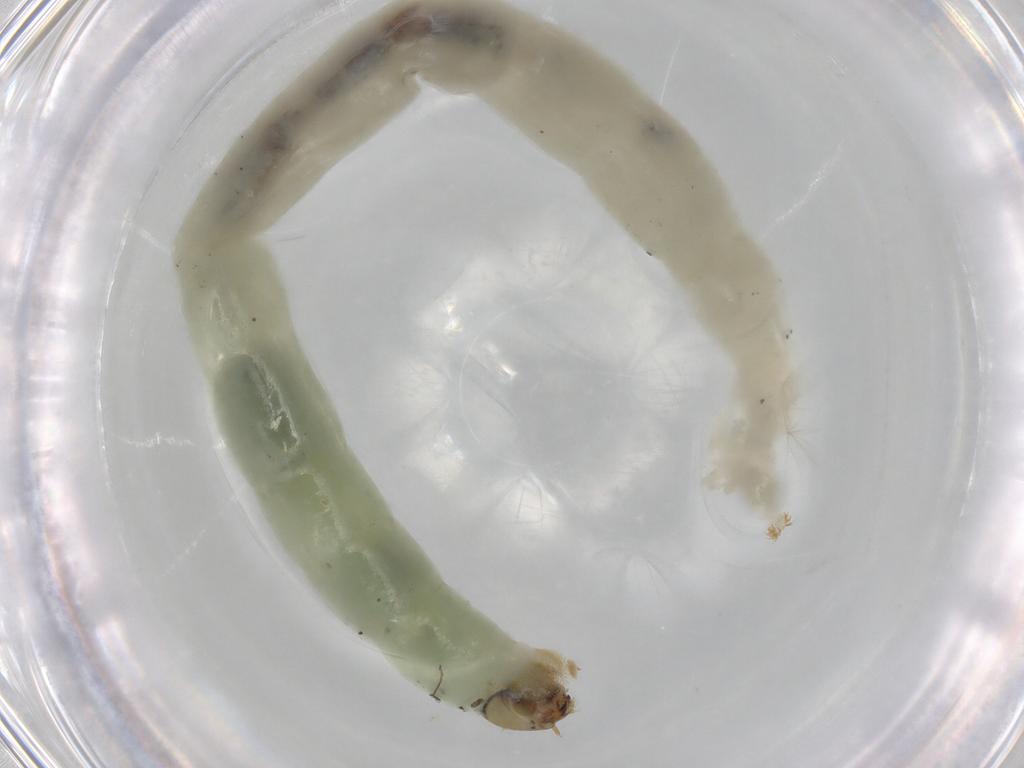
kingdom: Animalia
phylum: Arthropoda
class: Insecta
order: Diptera
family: Chironomidae
